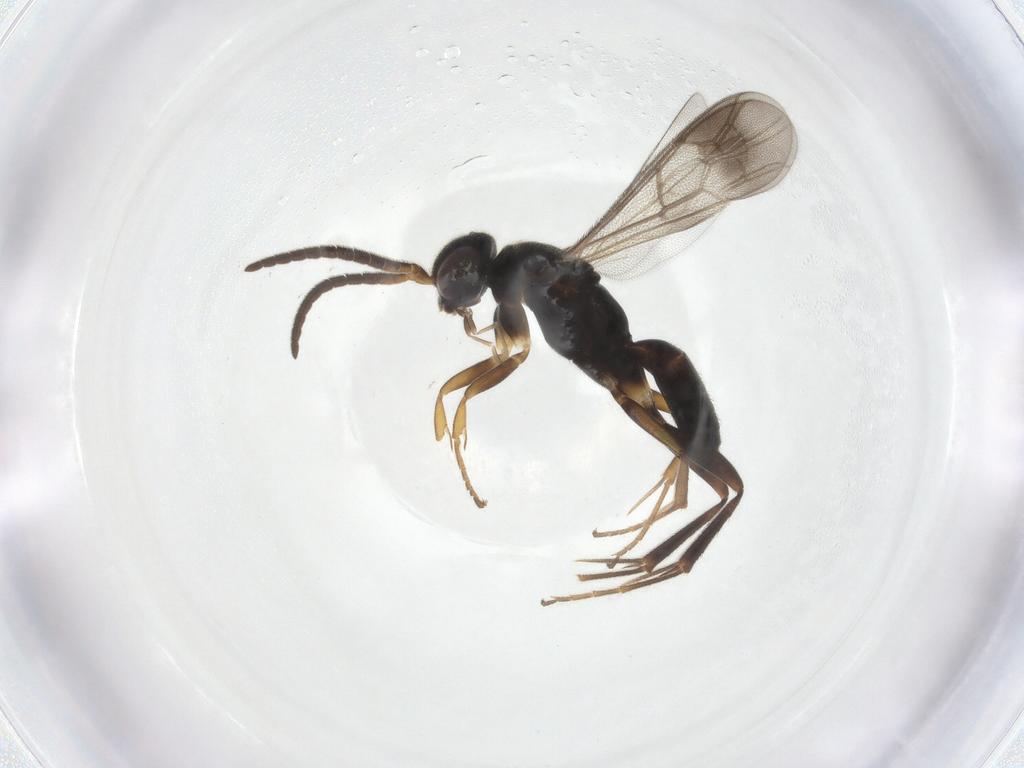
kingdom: Animalia
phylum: Arthropoda
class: Insecta
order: Hymenoptera
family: Pompilidae
